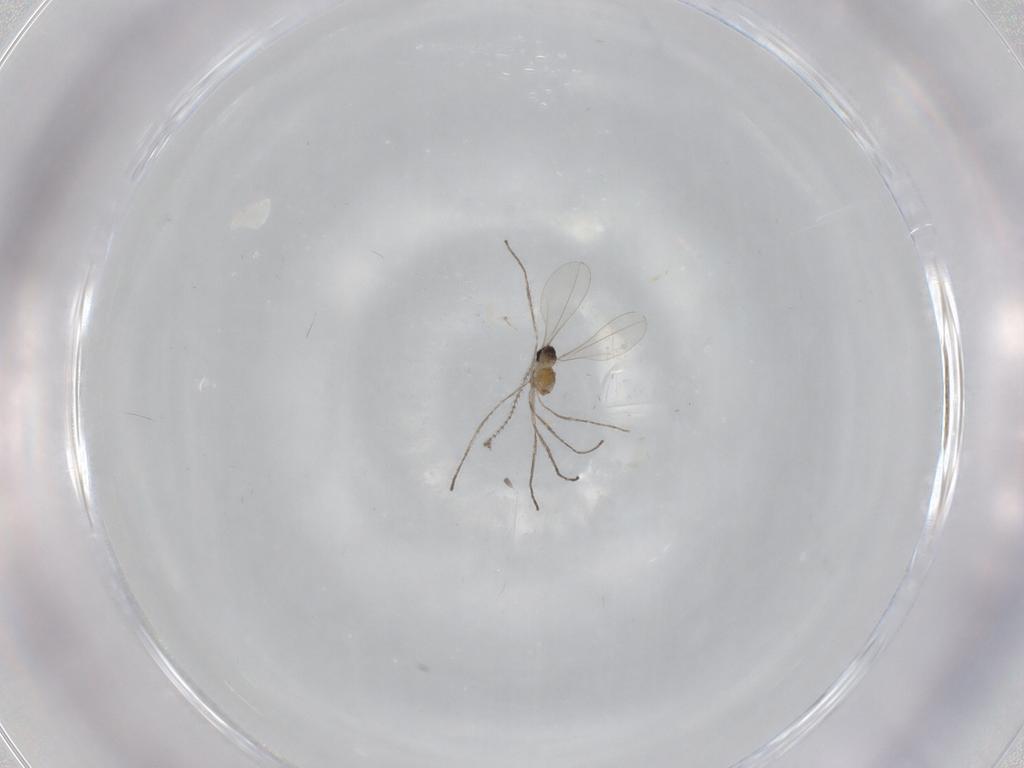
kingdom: Animalia
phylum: Arthropoda
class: Insecta
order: Diptera
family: Cecidomyiidae
